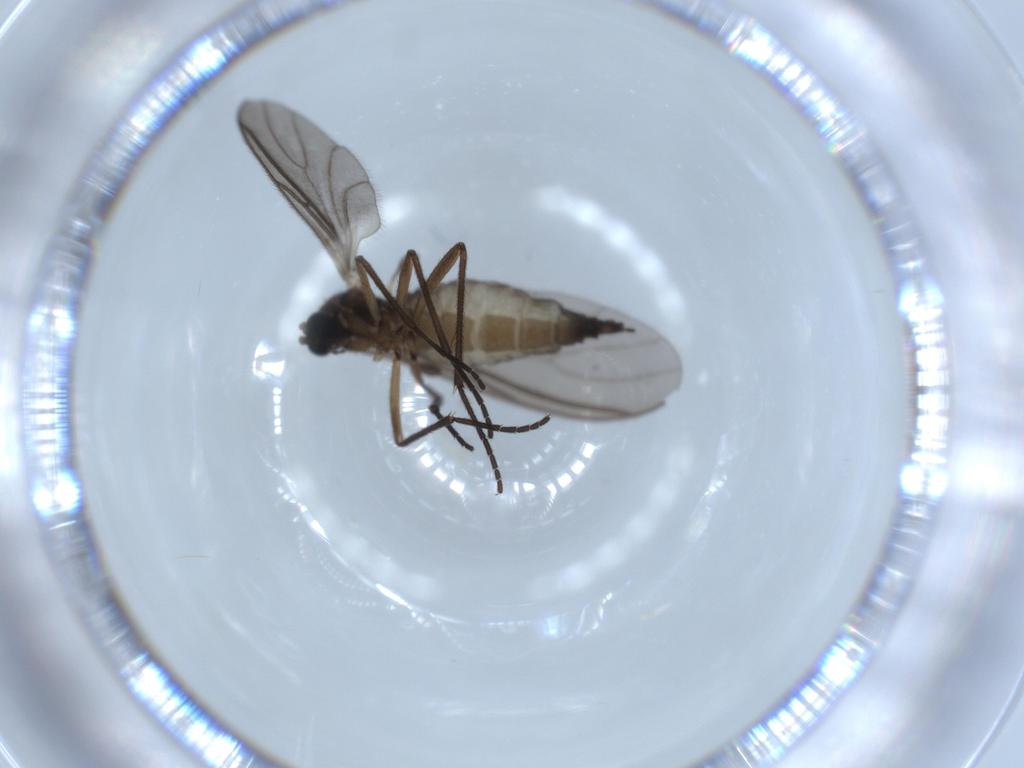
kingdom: Animalia
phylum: Arthropoda
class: Insecta
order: Diptera
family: Sciaridae
